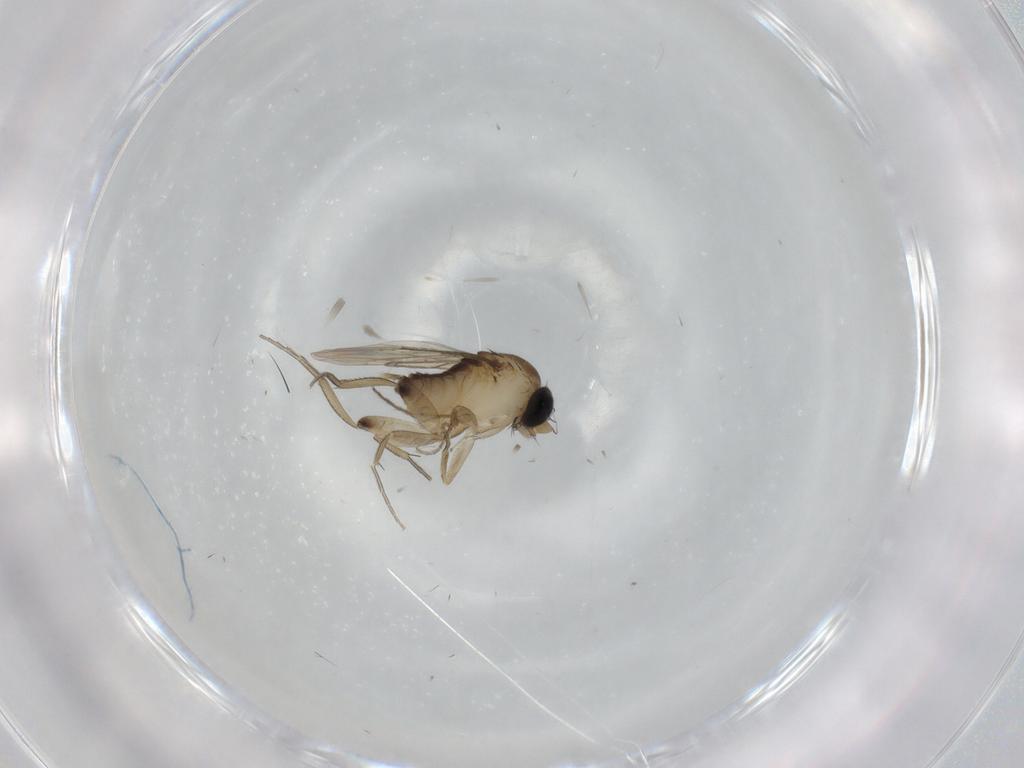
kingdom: Animalia
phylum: Arthropoda
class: Insecta
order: Diptera
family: Phoridae
